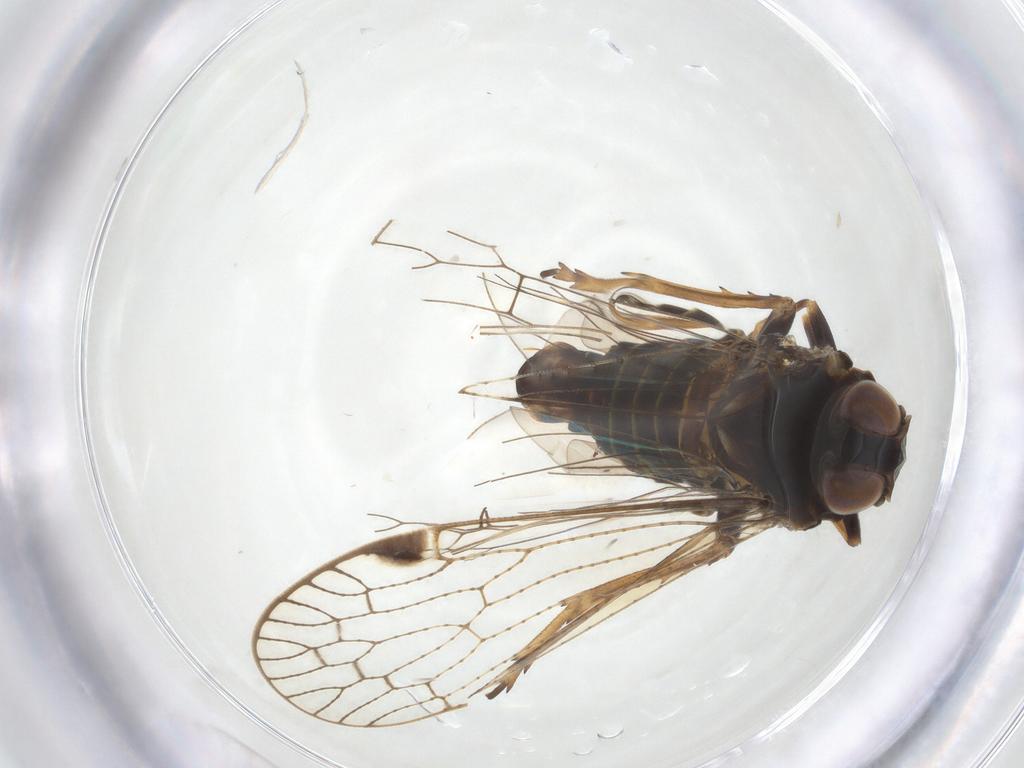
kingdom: Animalia
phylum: Arthropoda
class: Insecta
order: Hemiptera
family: Cixiidae
